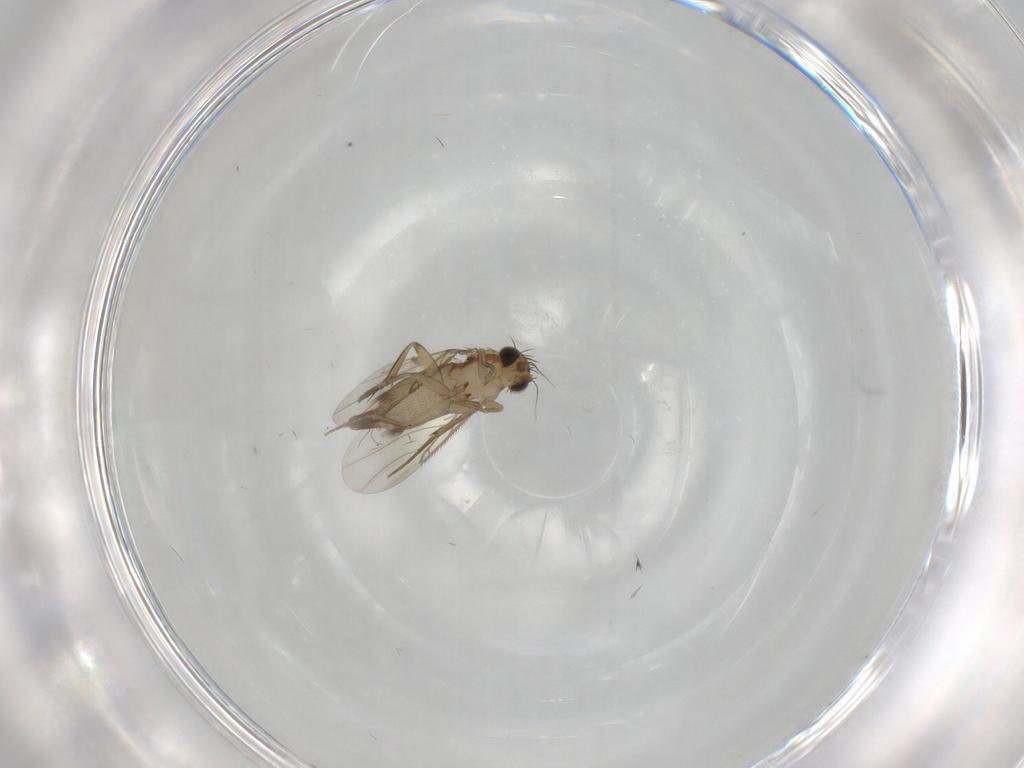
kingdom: Animalia
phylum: Arthropoda
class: Insecta
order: Diptera
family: Phoridae
